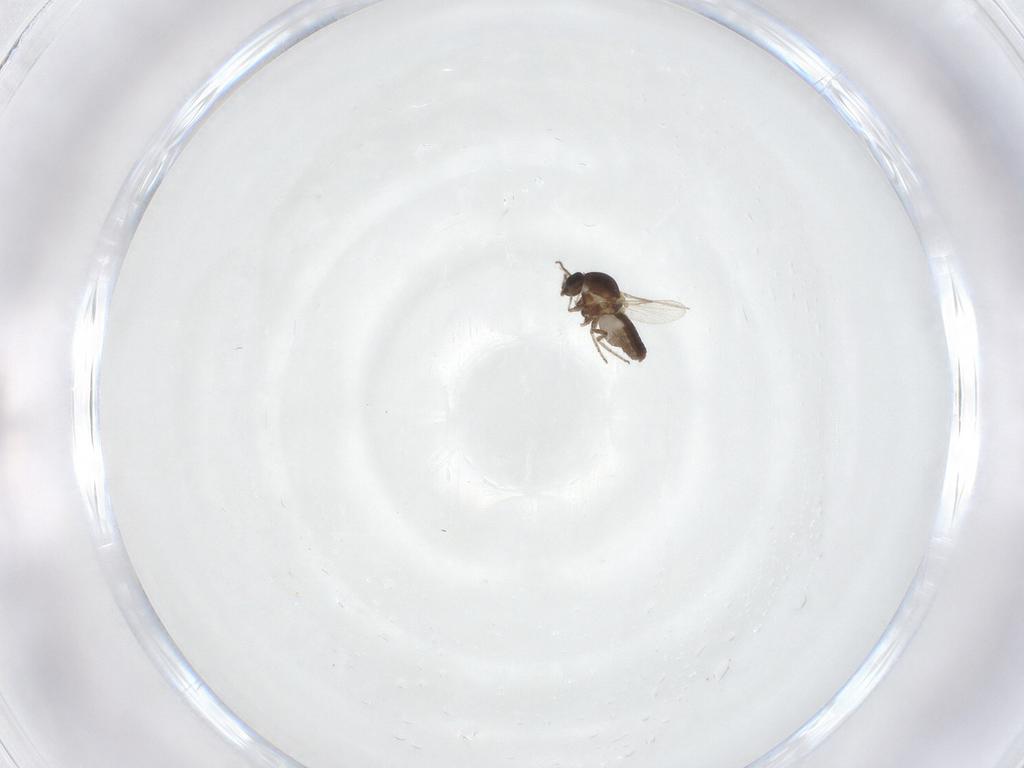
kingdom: Animalia
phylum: Arthropoda
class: Insecta
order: Diptera
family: Ceratopogonidae
